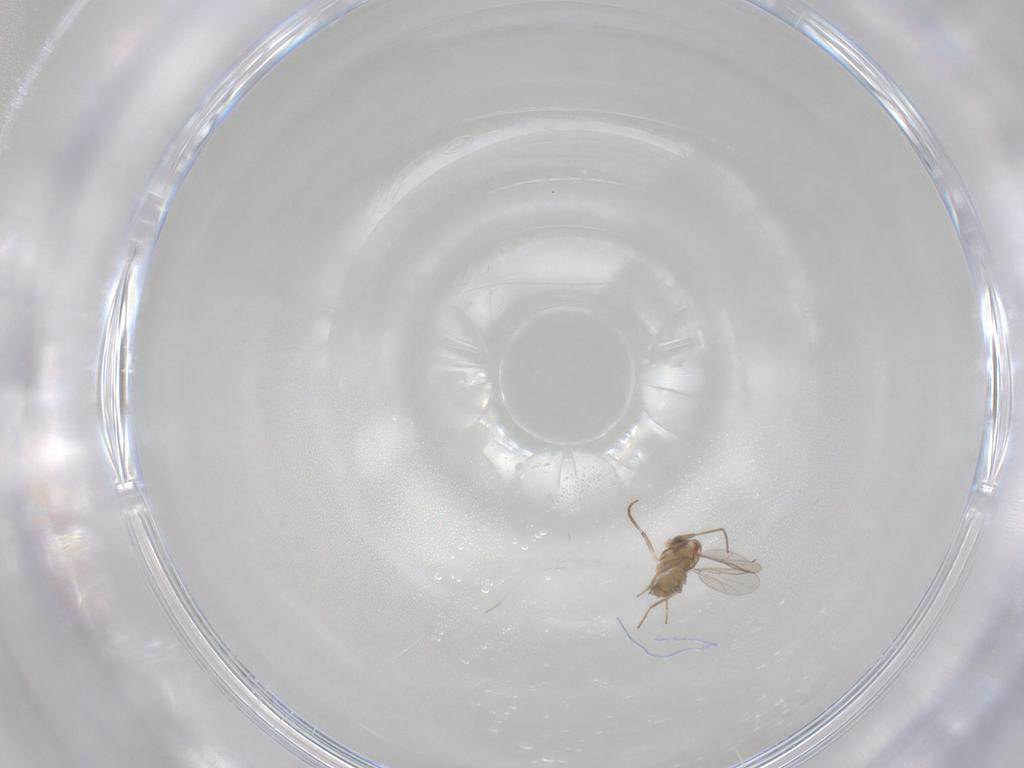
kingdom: Animalia
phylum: Arthropoda
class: Insecta
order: Diptera
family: Chironomidae
